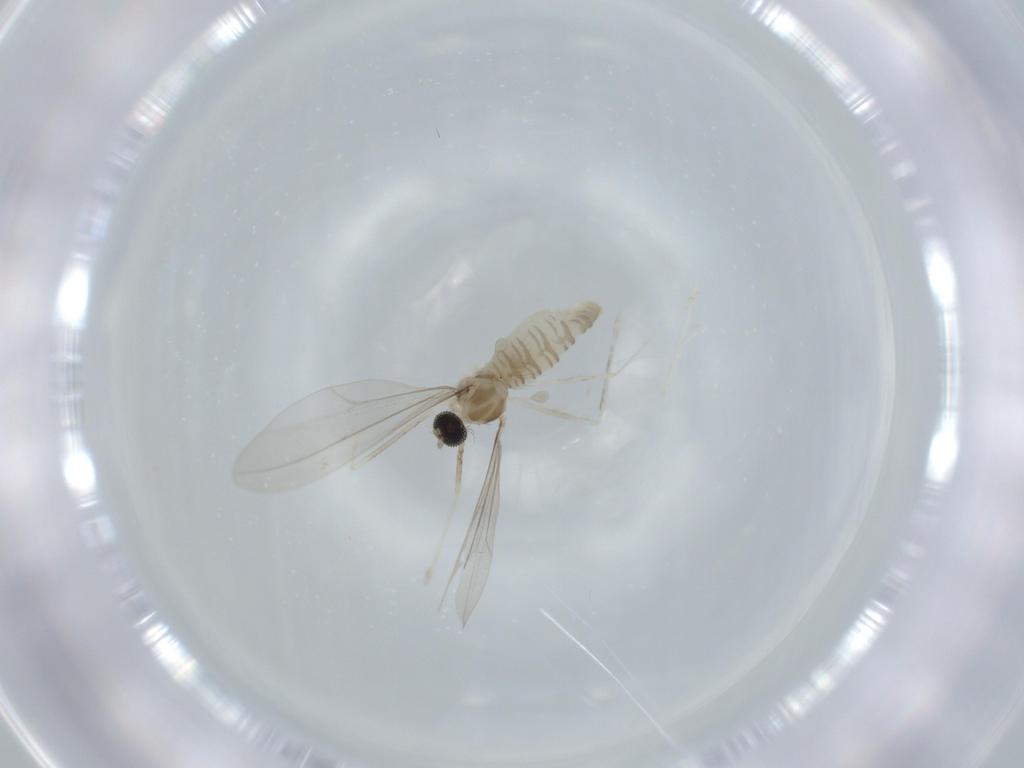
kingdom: Animalia
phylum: Arthropoda
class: Insecta
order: Diptera
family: Cecidomyiidae
